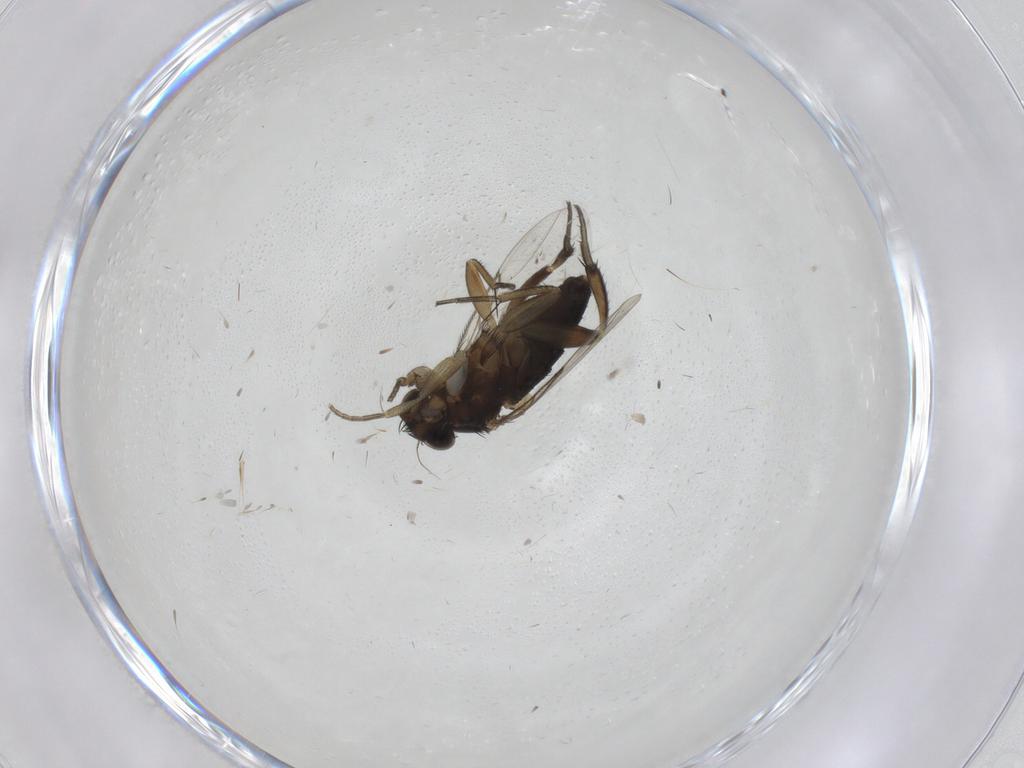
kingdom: Animalia
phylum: Arthropoda
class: Insecta
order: Diptera
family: Phoridae
